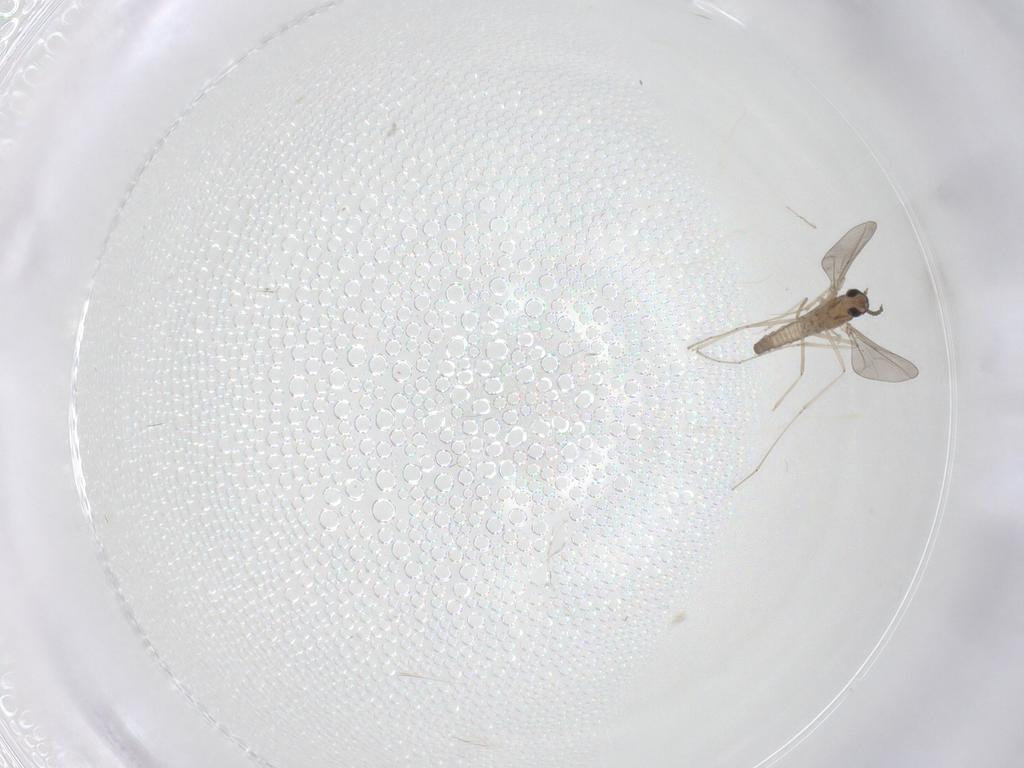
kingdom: Animalia
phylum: Arthropoda
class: Insecta
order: Diptera
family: Cecidomyiidae
